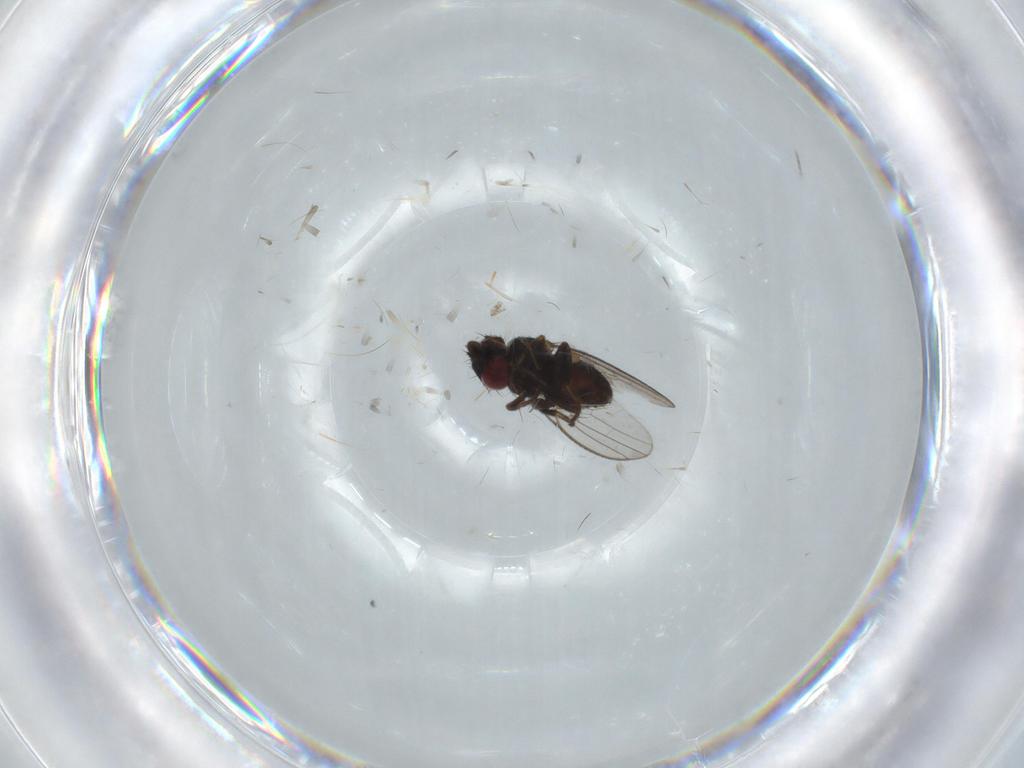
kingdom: Animalia
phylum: Arthropoda
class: Insecta
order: Diptera
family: Milichiidae
